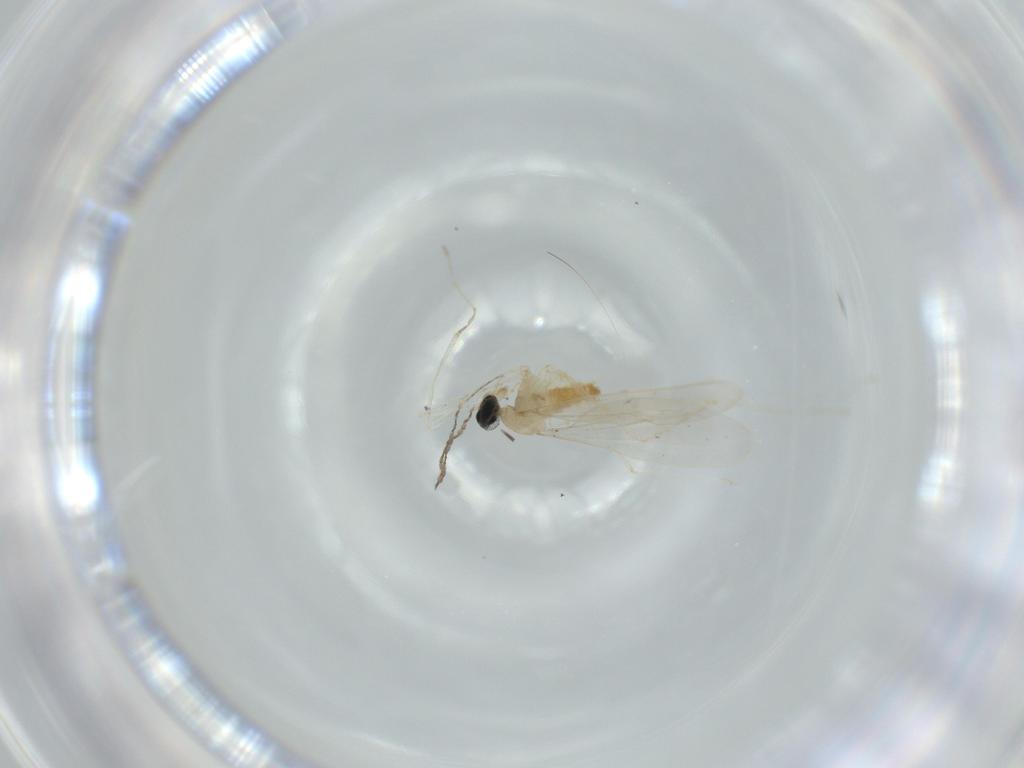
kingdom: Animalia
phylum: Arthropoda
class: Insecta
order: Diptera
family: Cecidomyiidae
